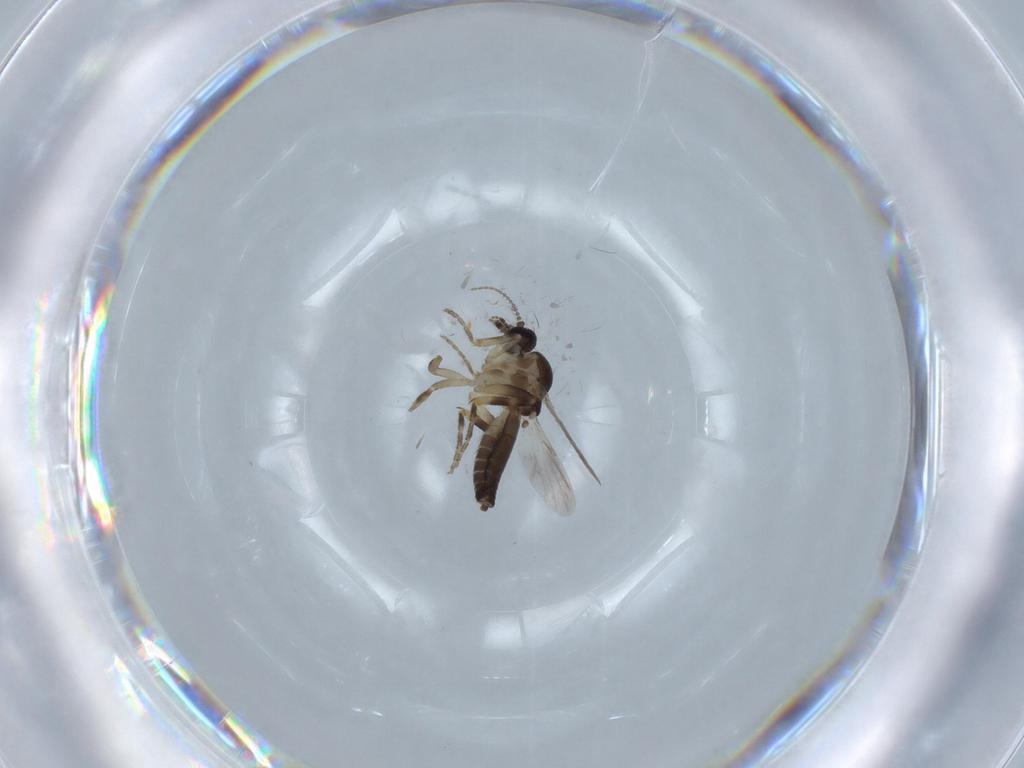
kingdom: Animalia
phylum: Arthropoda
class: Insecta
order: Diptera
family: Ceratopogonidae
